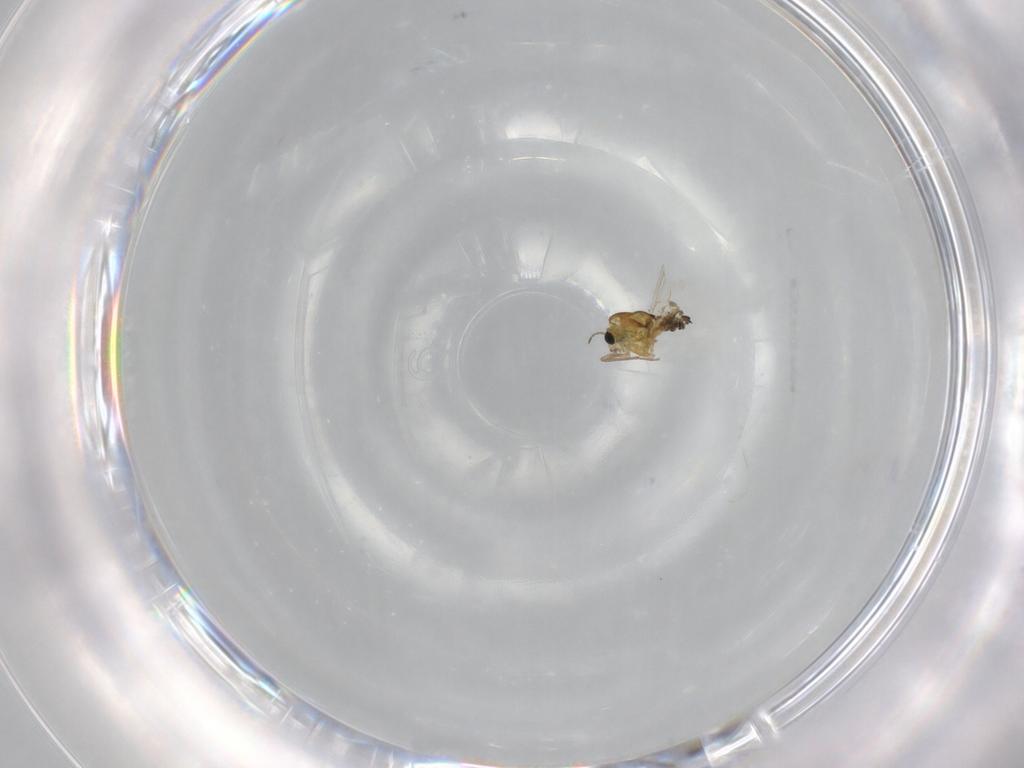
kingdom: Animalia
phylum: Arthropoda
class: Insecta
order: Diptera
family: Chironomidae
